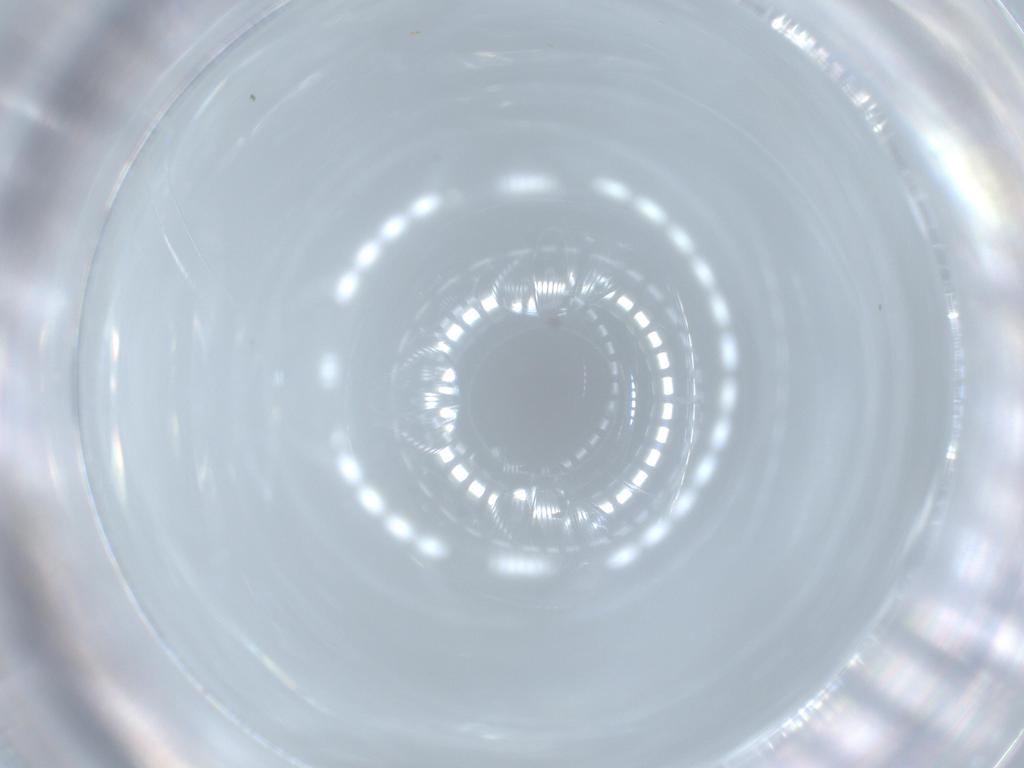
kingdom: Animalia
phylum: Arthropoda
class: Insecta
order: Diptera
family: Cecidomyiidae
